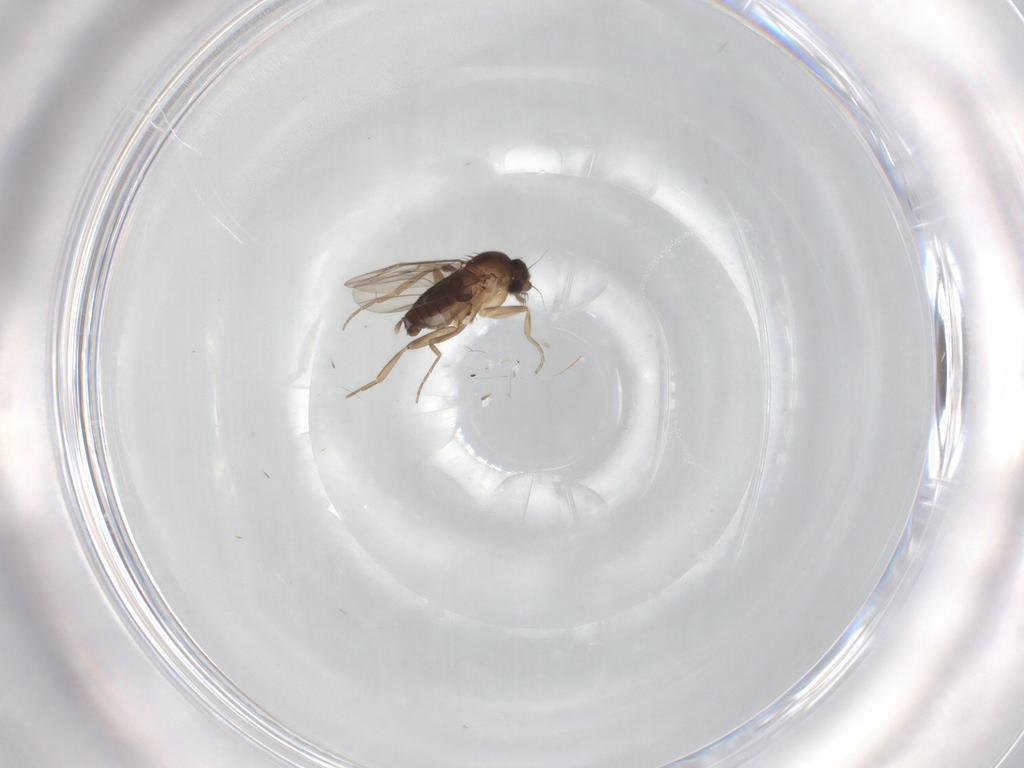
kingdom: Animalia
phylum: Arthropoda
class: Insecta
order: Diptera
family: Phoridae
